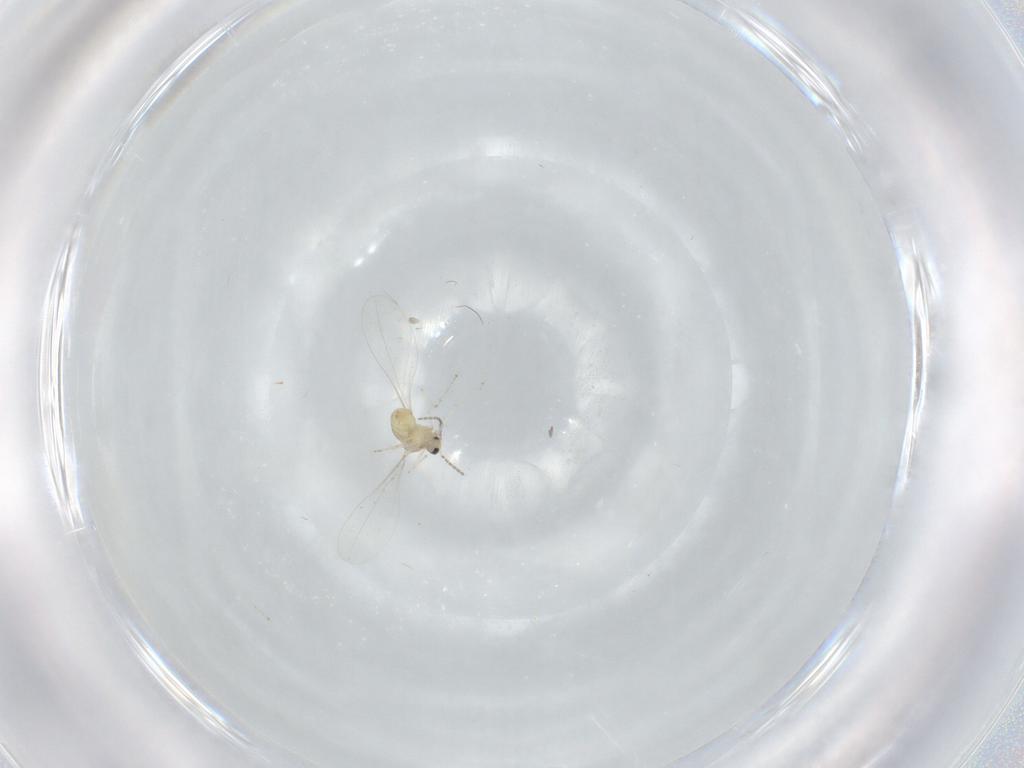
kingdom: Animalia
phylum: Arthropoda
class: Insecta
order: Diptera
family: Cecidomyiidae
